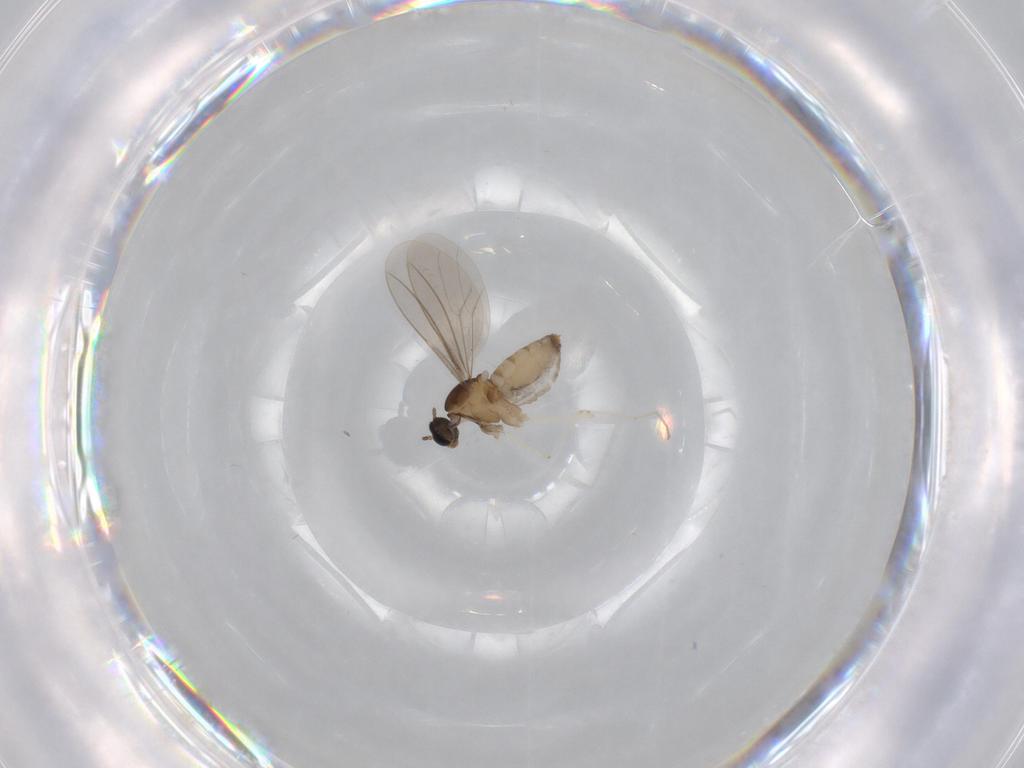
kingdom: Animalia
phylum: Arthropoda
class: Insecta
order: Diptera
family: Cecidomyiidae
